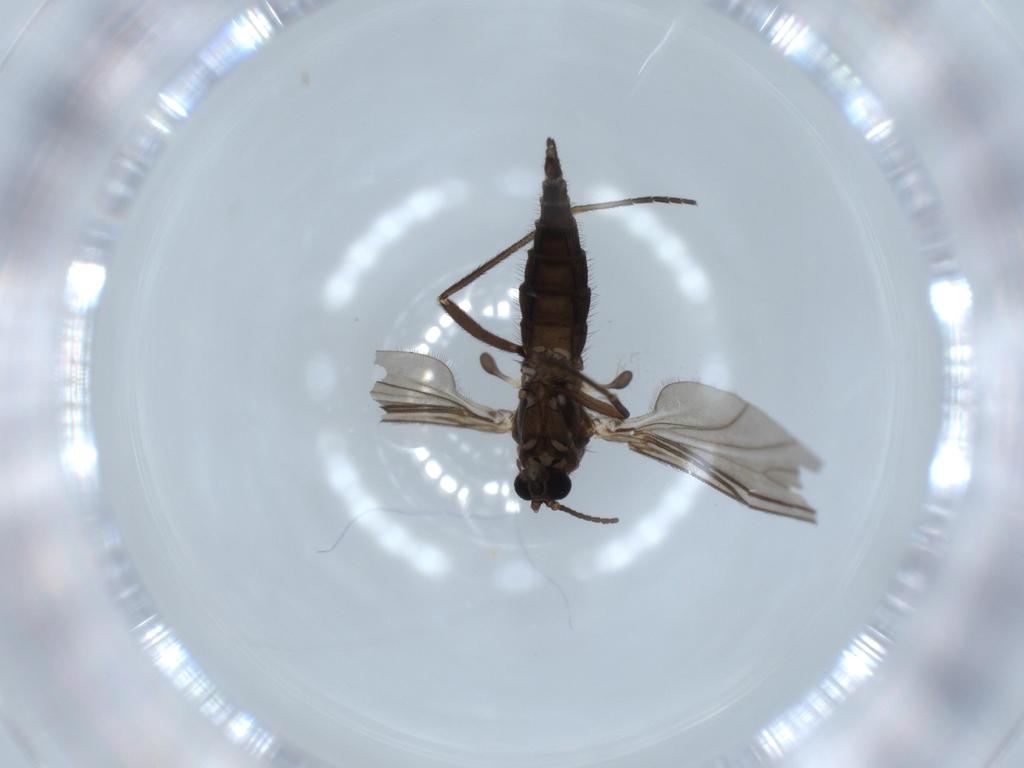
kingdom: Animalia
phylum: Arthropoda
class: Insecta
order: Diptera
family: Sciaridae
